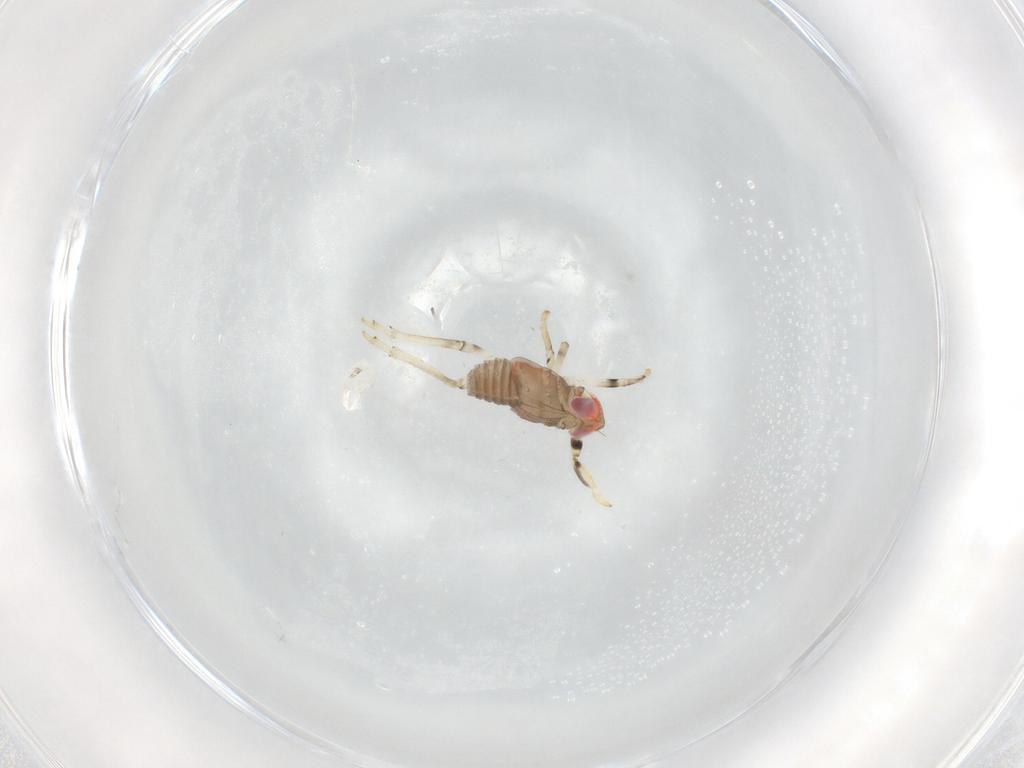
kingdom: Animalia
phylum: Arthropoda
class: Insecta
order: Hemiptera
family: Issidae
